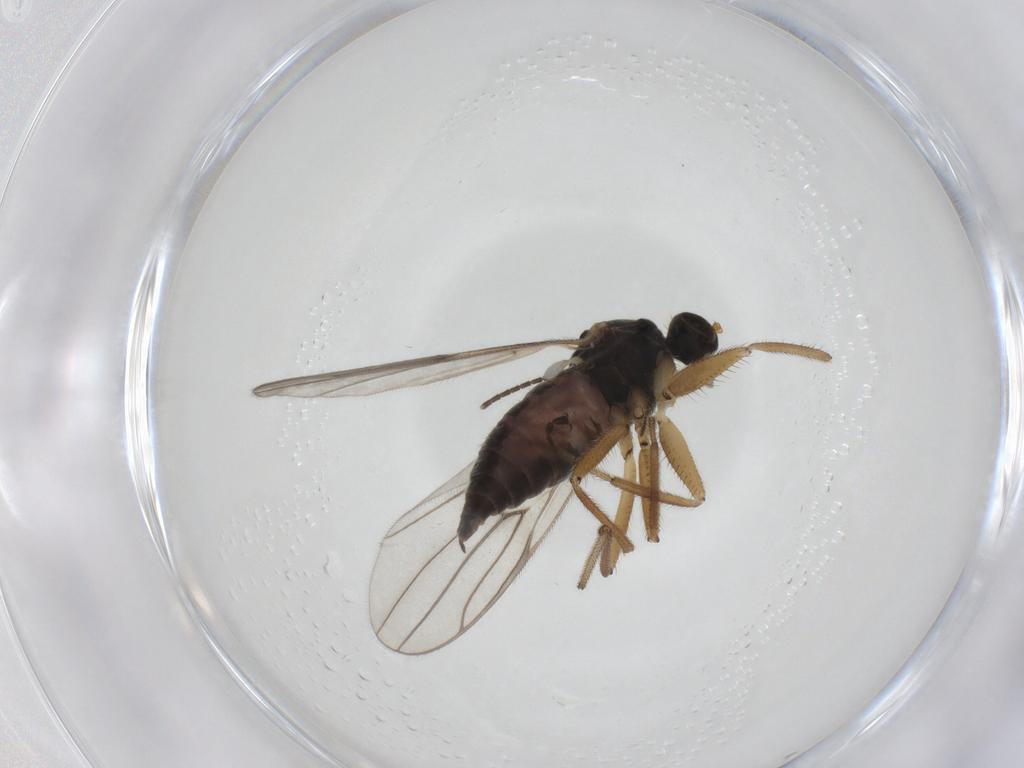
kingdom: Animalia
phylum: Arthropoda
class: Insecta
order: Diptera
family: Hybotidae
